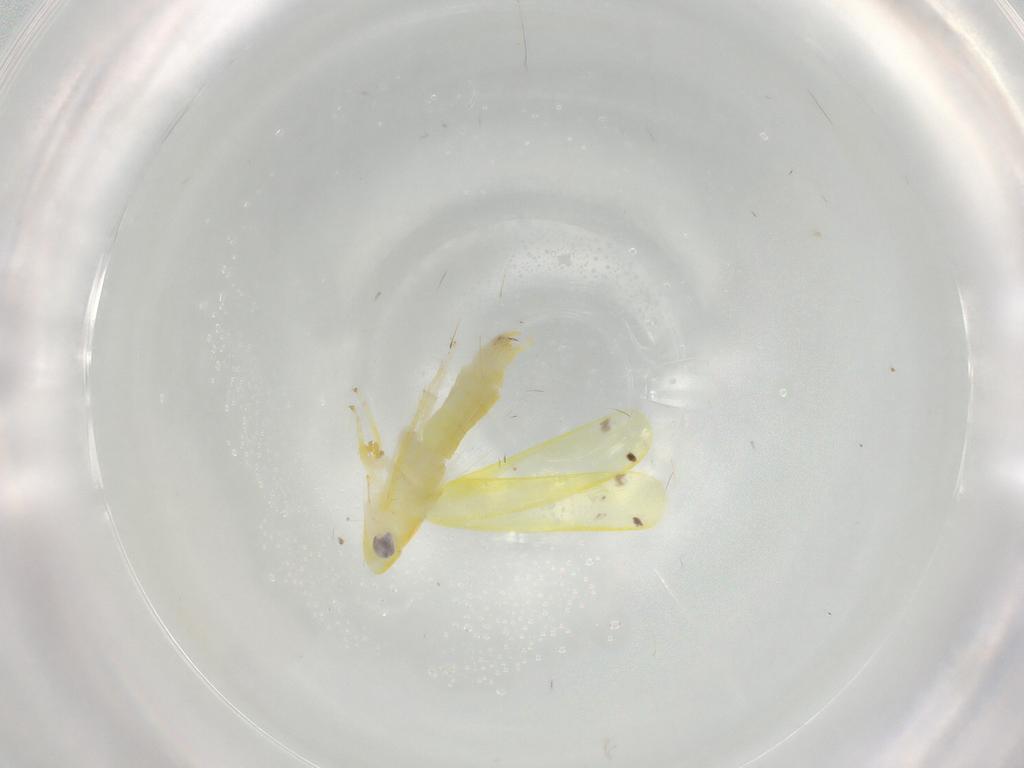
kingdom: Animalia
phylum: Arthropoda
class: Insecta
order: Hemiptera
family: Cicadellidae
